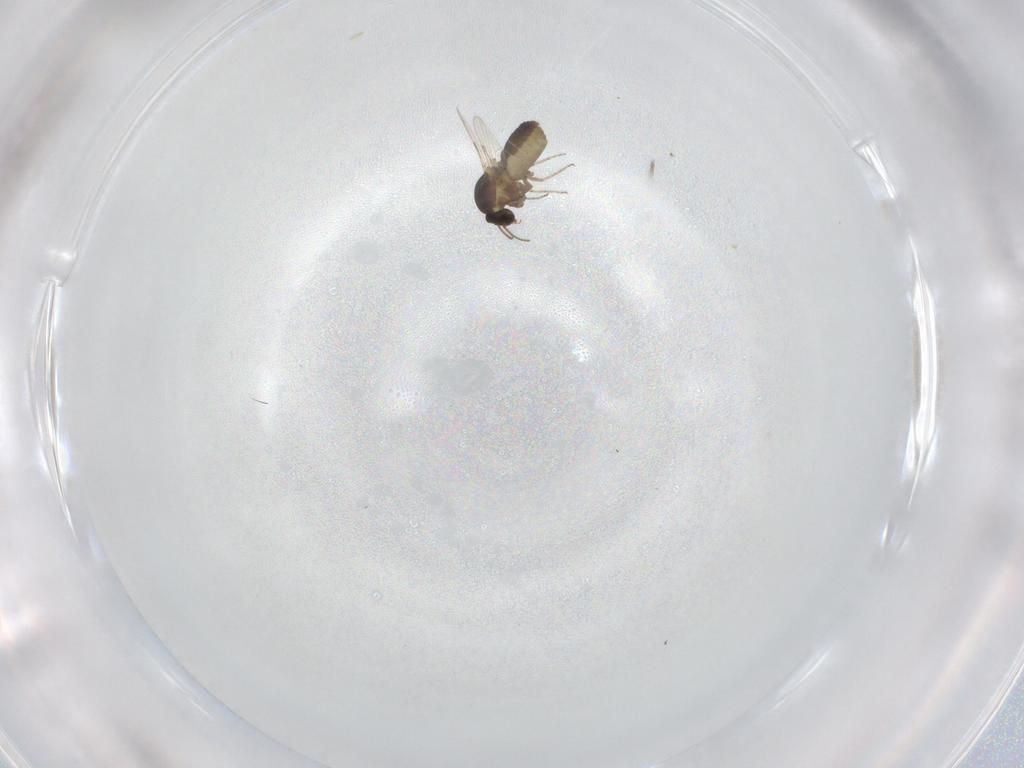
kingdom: Animalia
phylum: Arthropoda
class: Insecta
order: Diptera
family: Ceratopogonidae
